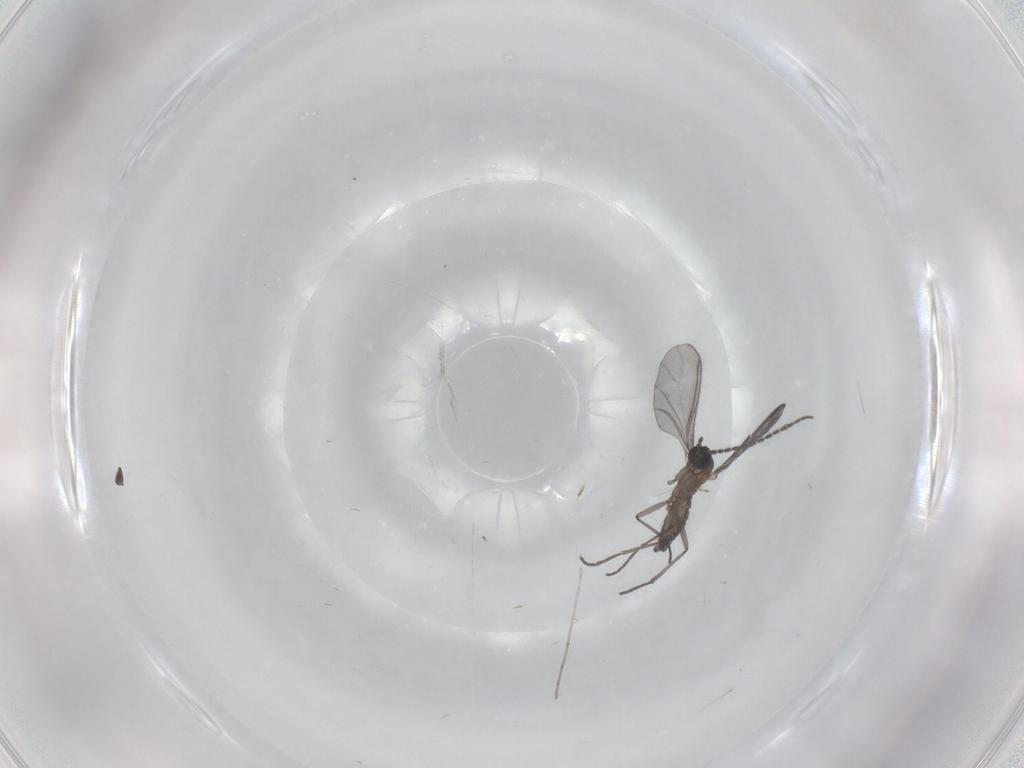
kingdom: Animalia
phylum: Arthropoda
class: Insecta
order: Diptera
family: Sciaridae
